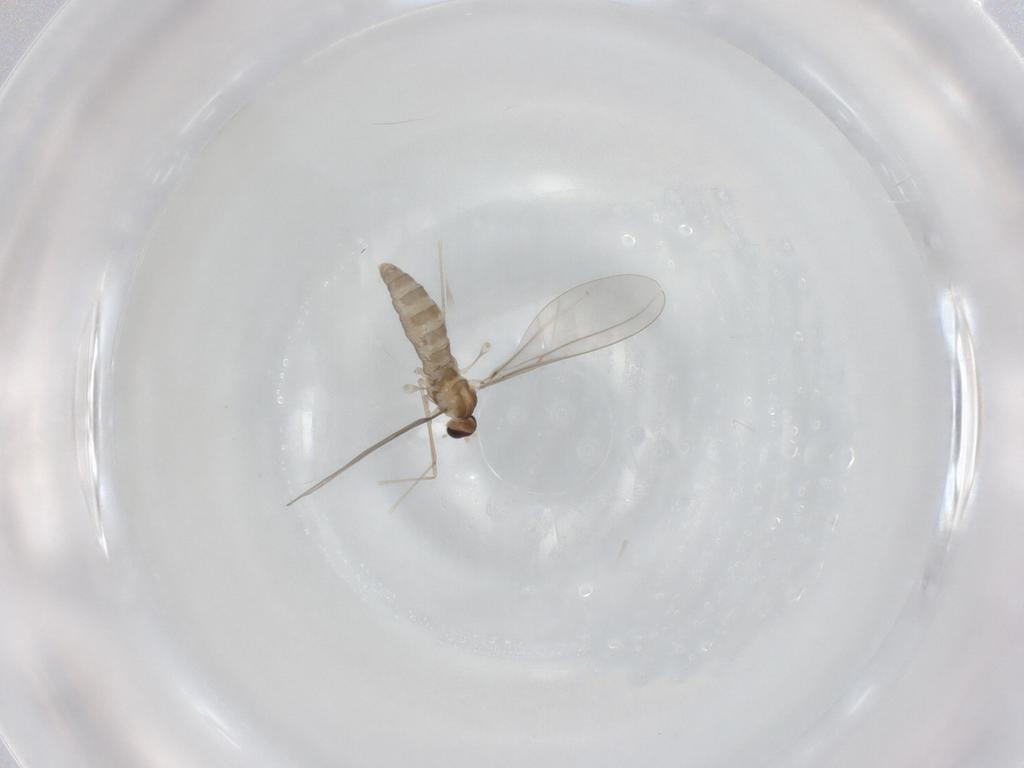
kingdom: Animalia
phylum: Arthropoda
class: Insecta
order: Diptera
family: Cecidomyiidae
